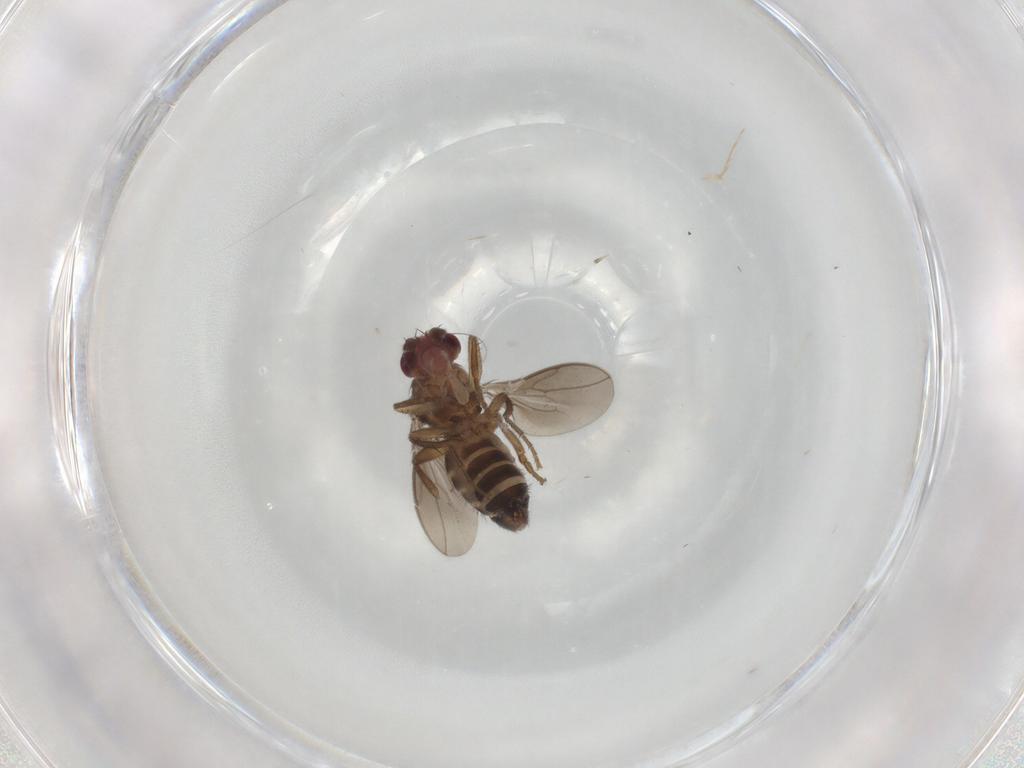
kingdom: Animalia
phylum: Arthropoda
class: Insecta
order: Diptera
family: Sphaeroceridae
